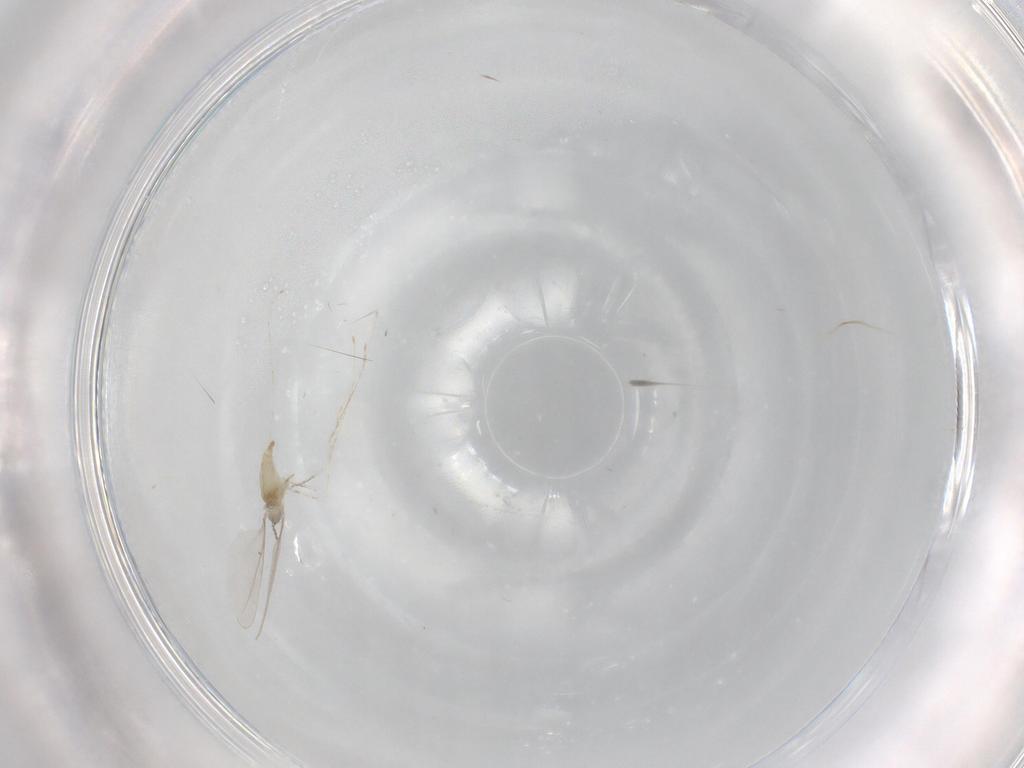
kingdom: Animalia
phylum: Arthropoda
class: Insecta
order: Diptera
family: Cecidomyiidae
